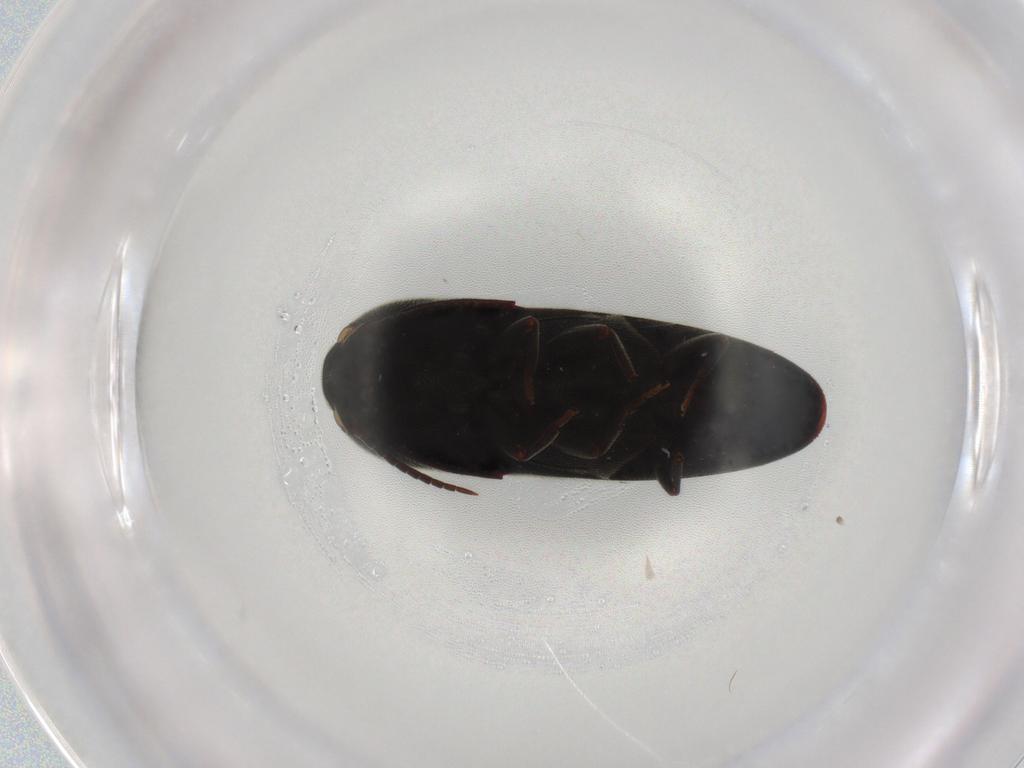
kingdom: Animalia
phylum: Arthropoda
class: Insecta
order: Coleoptera
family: Eucnemidae
